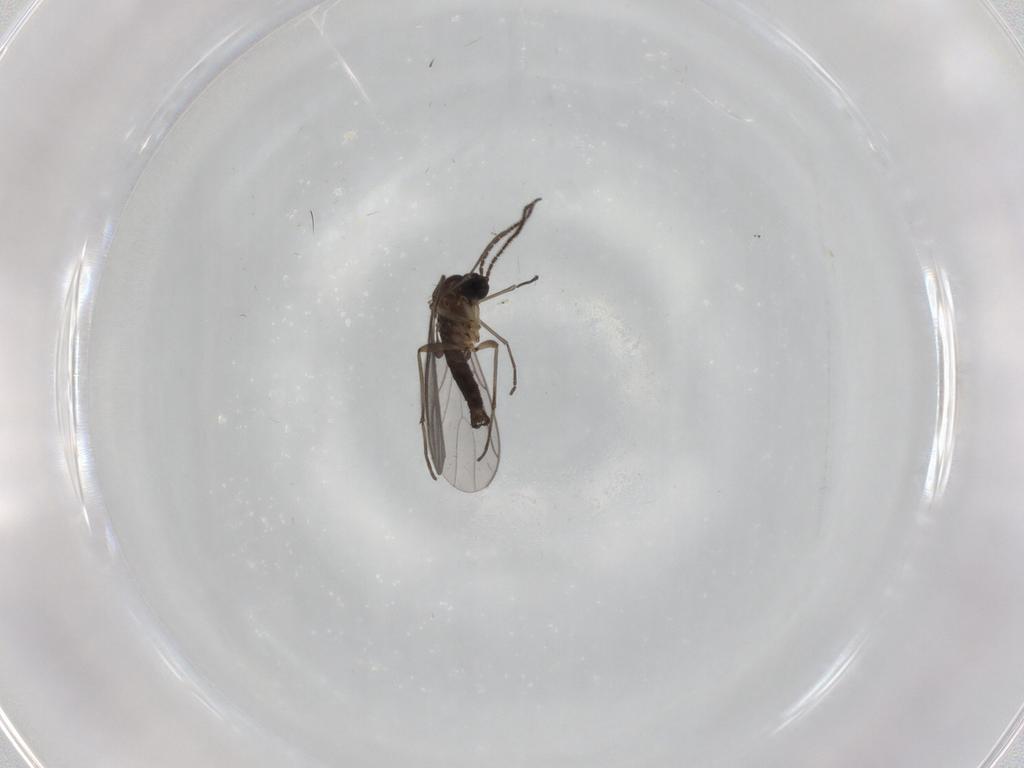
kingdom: Animalia
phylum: Arthropoda
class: Insecta
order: Diptera
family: Sciaridae
